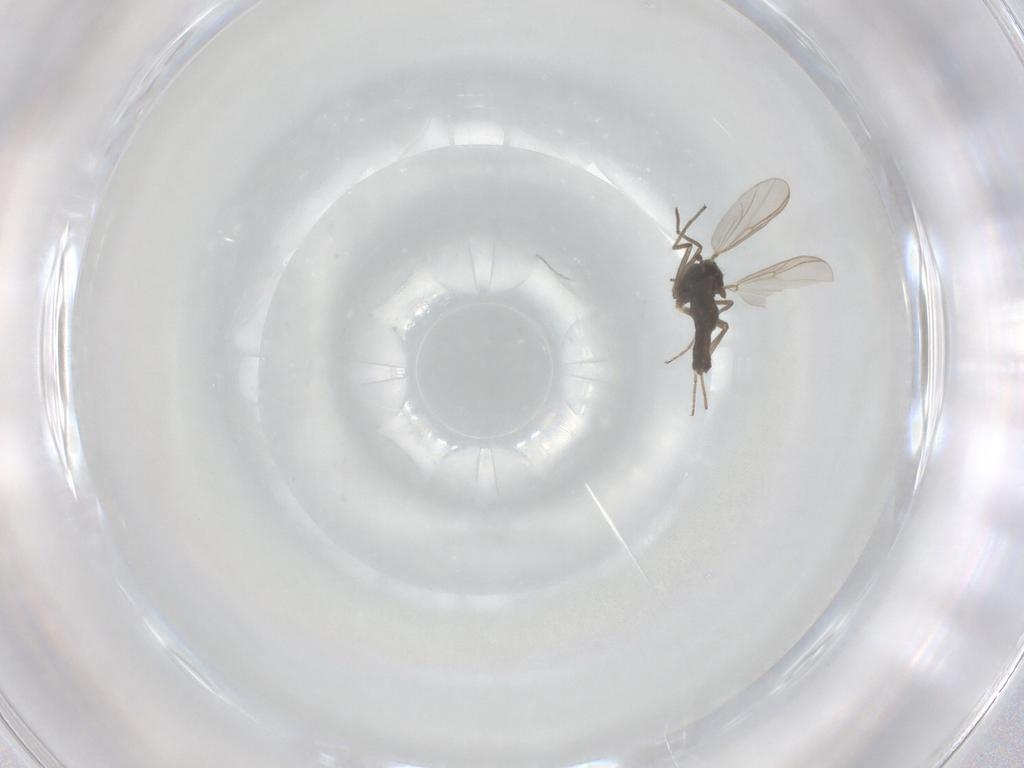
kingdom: Animalia
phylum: Arthropoda
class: Insecta
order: Diptera
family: Chironomidae
